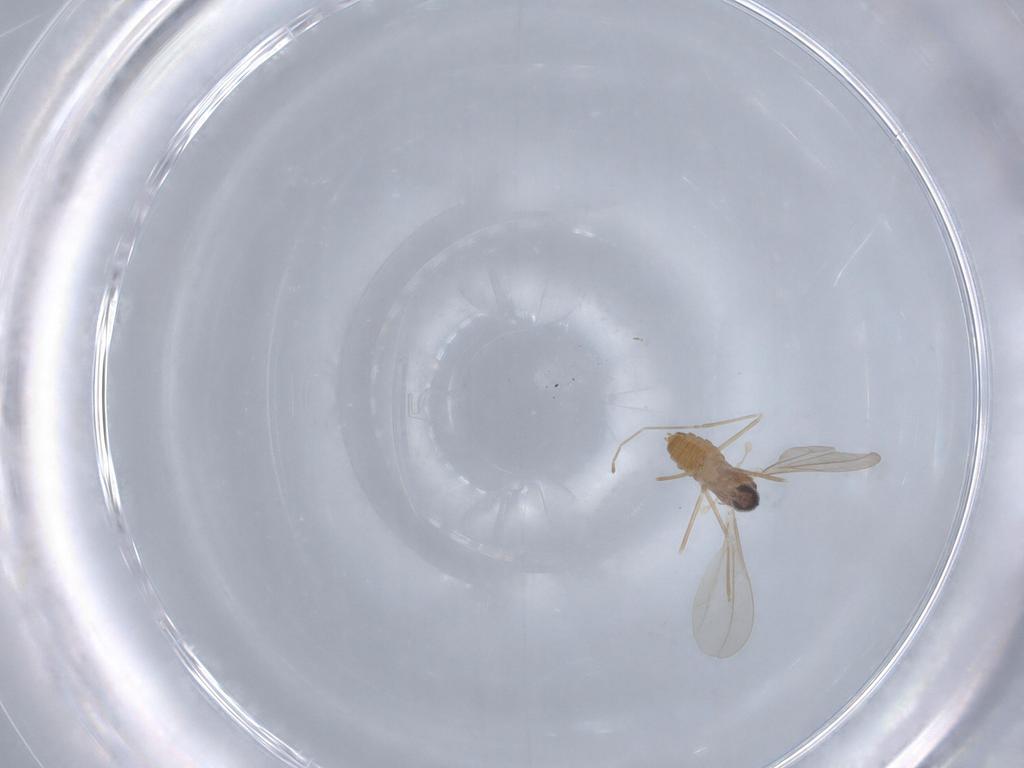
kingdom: Animalia
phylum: Arthropoda
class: Insecta
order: Diptera
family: Cecidomyiidae
